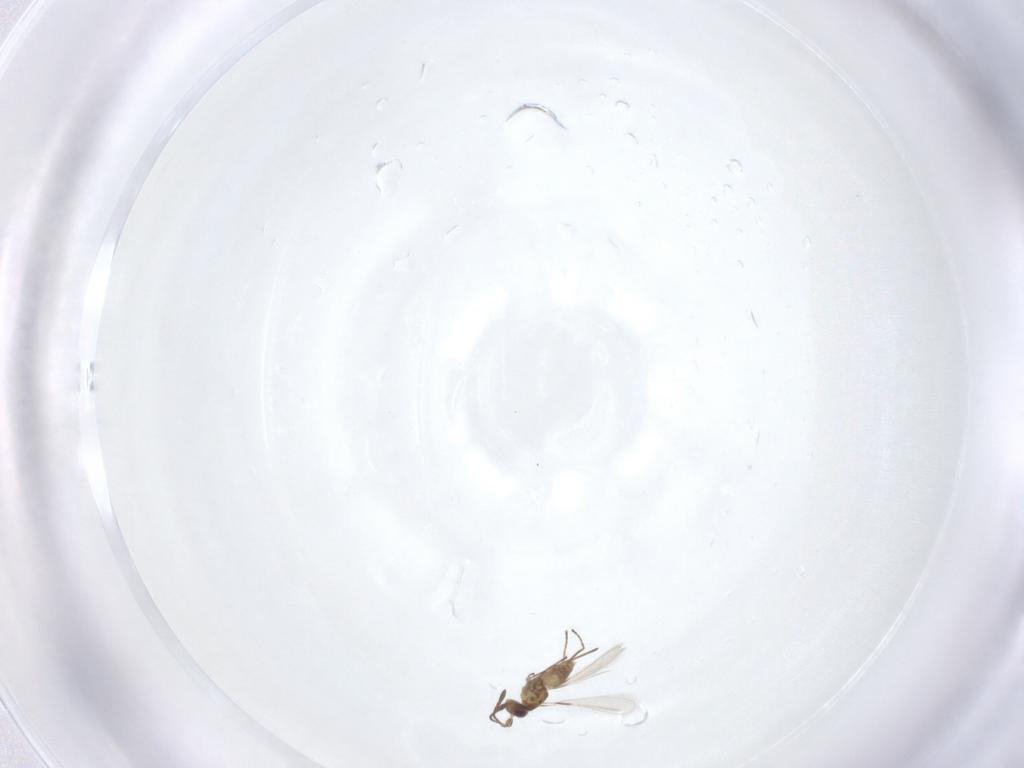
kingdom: Animalia
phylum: Arthropoda
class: Insecta
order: Hymenoptera
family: Mymaridae
